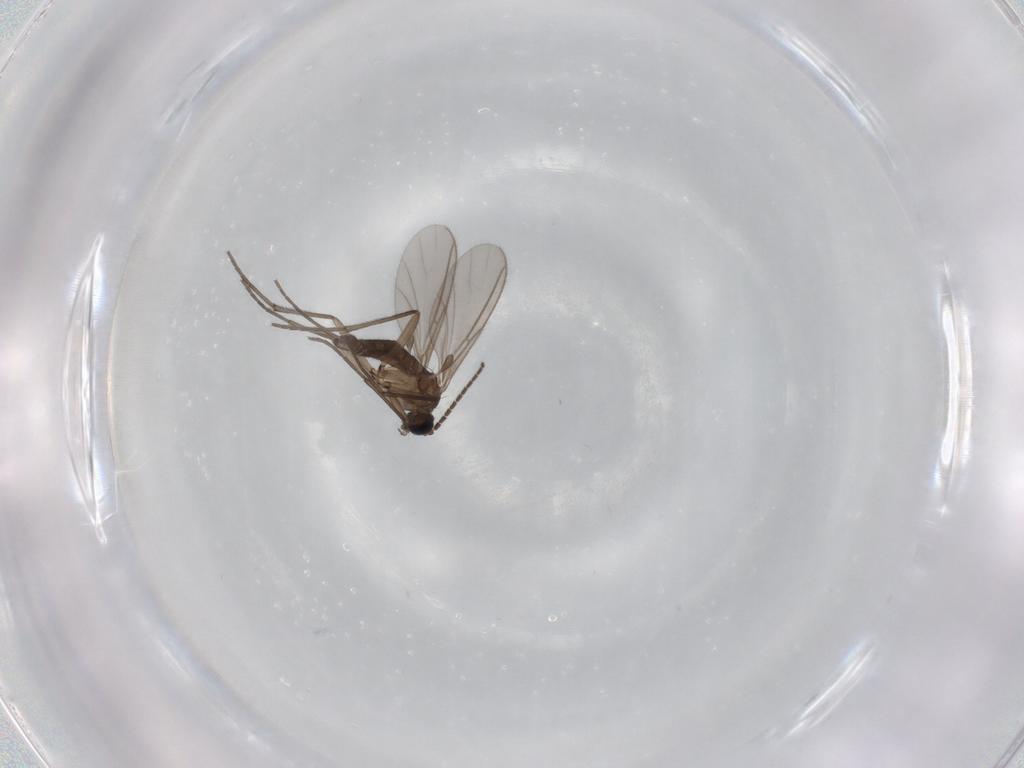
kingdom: Animalia
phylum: Arthropoda
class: Insecta
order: Diptera
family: Sciaridae
